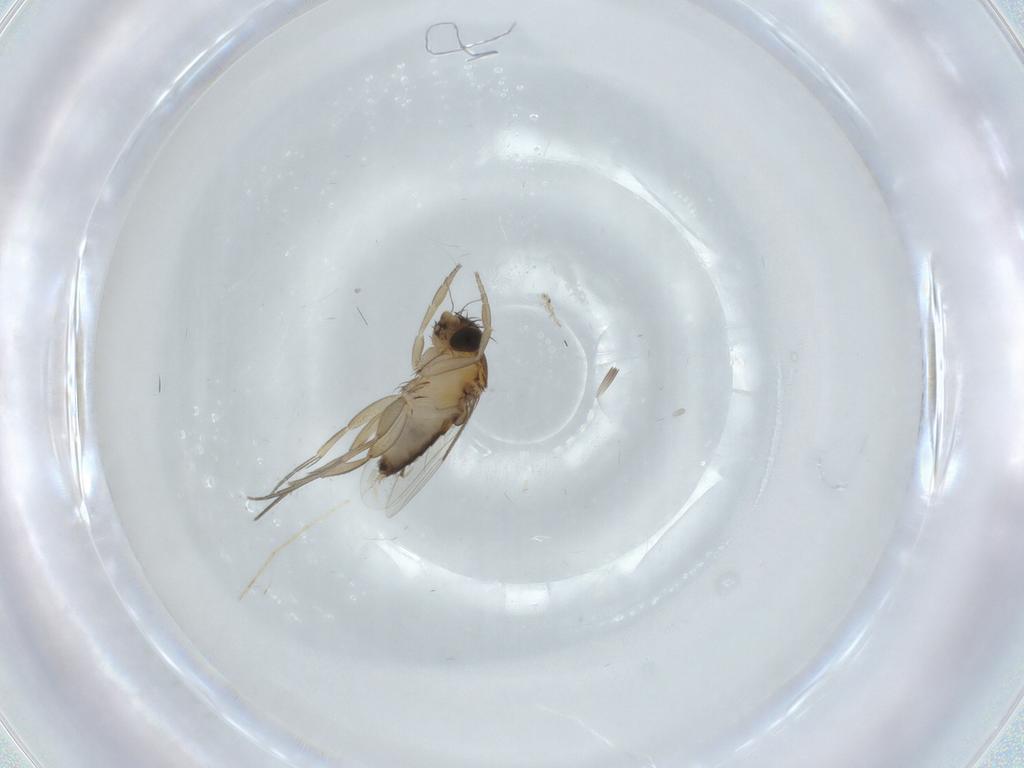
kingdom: Animalia
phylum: Arthropoda
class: Insecta
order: Diptera
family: Phoridae
